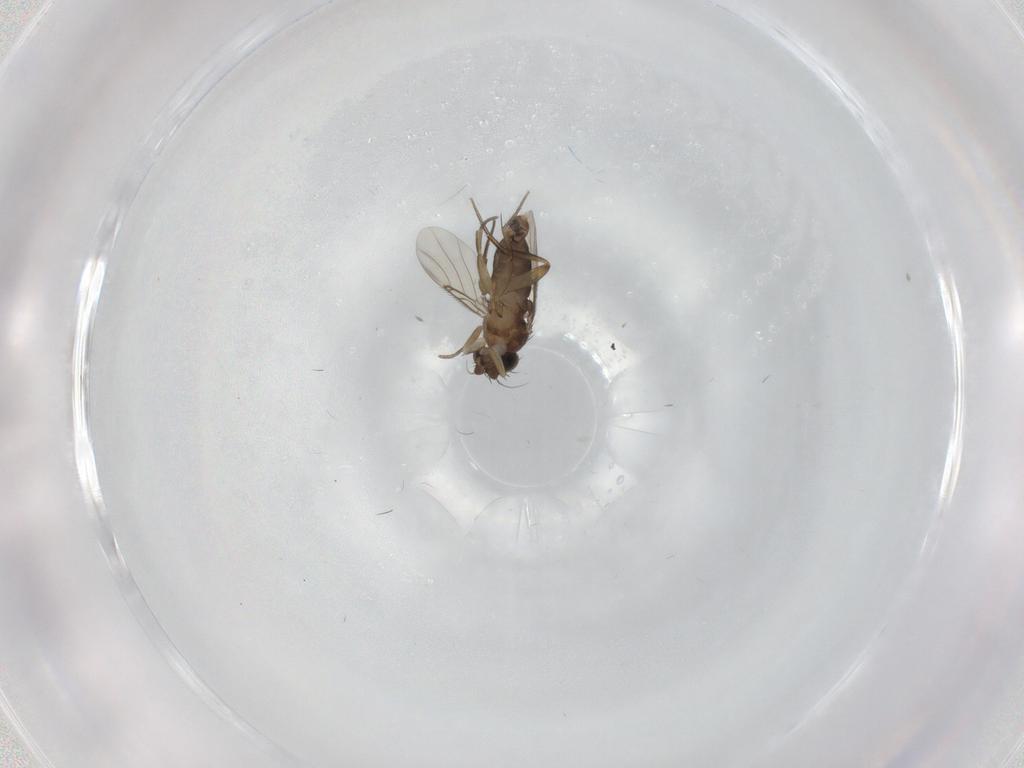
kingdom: Animalia
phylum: Arthropoda
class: Insecta
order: Diptera
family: Phoridae
